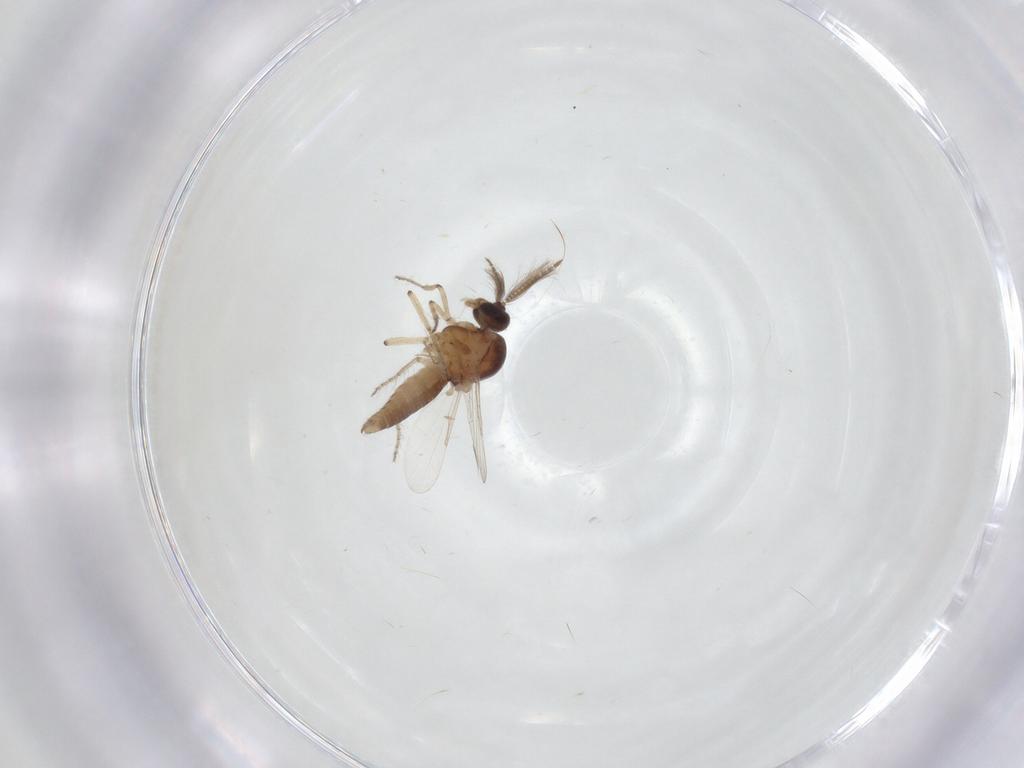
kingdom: Animalia
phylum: Arthropoda
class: Insecta
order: Diptera
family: Ceratopogonidae
